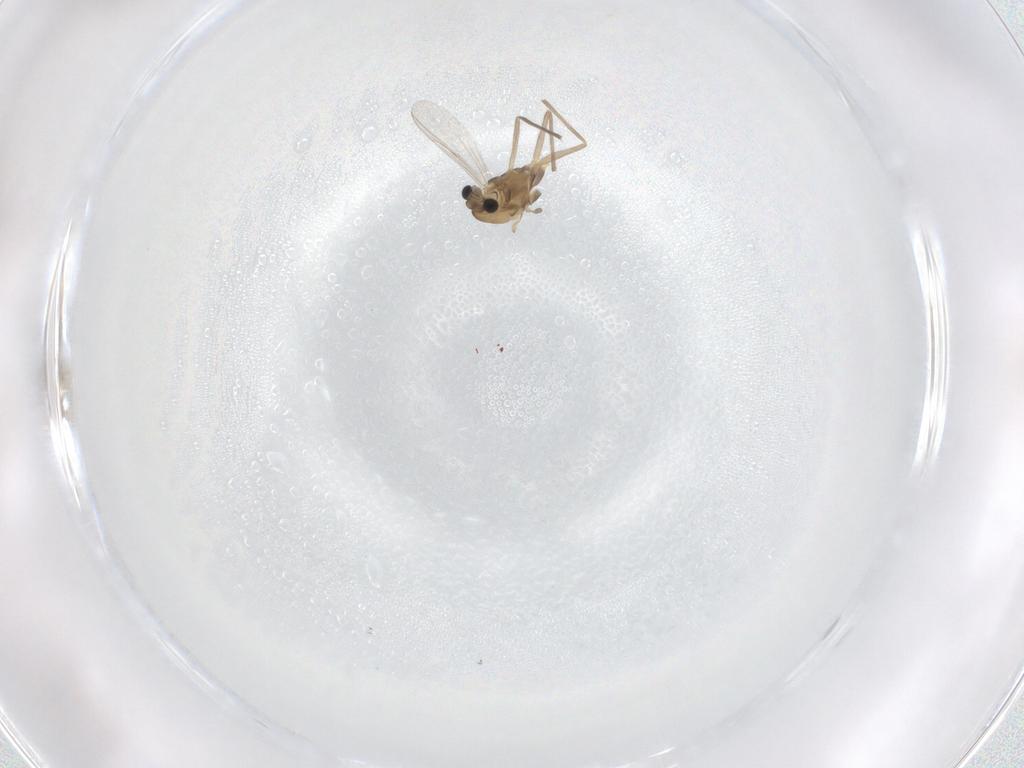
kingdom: Animalia
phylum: Arthropoda
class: Insecta
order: Diptera
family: Chironomidae
